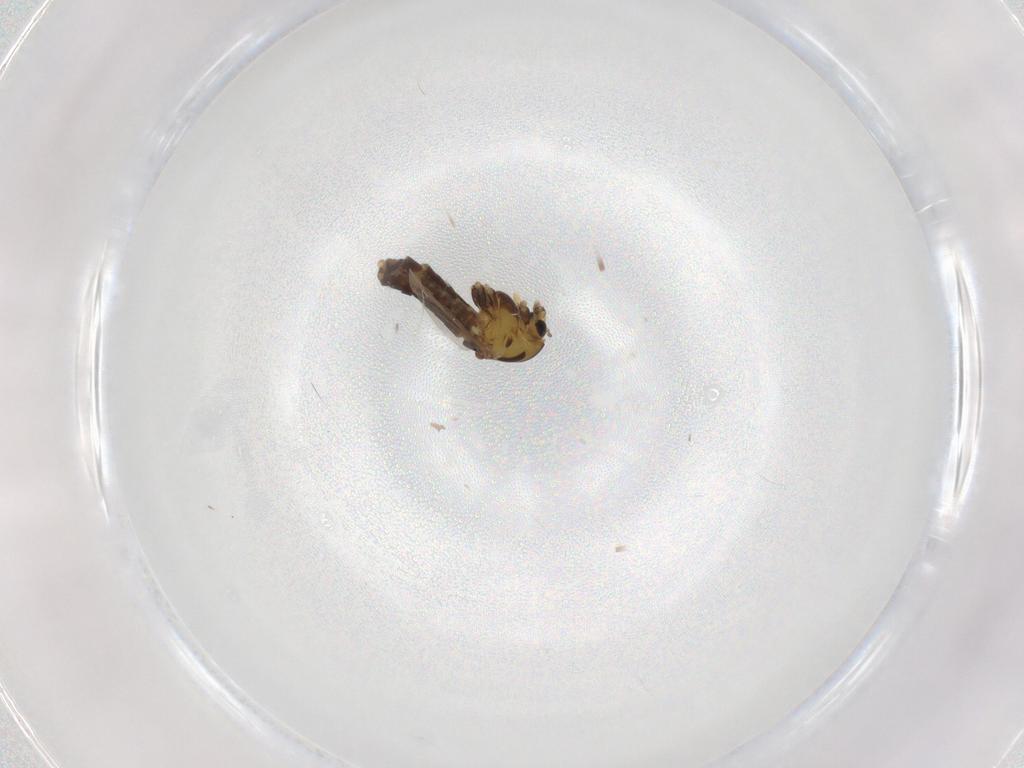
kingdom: Animalia
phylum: Arthropoda
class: Insecta
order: Diptera
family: Chironomidae
